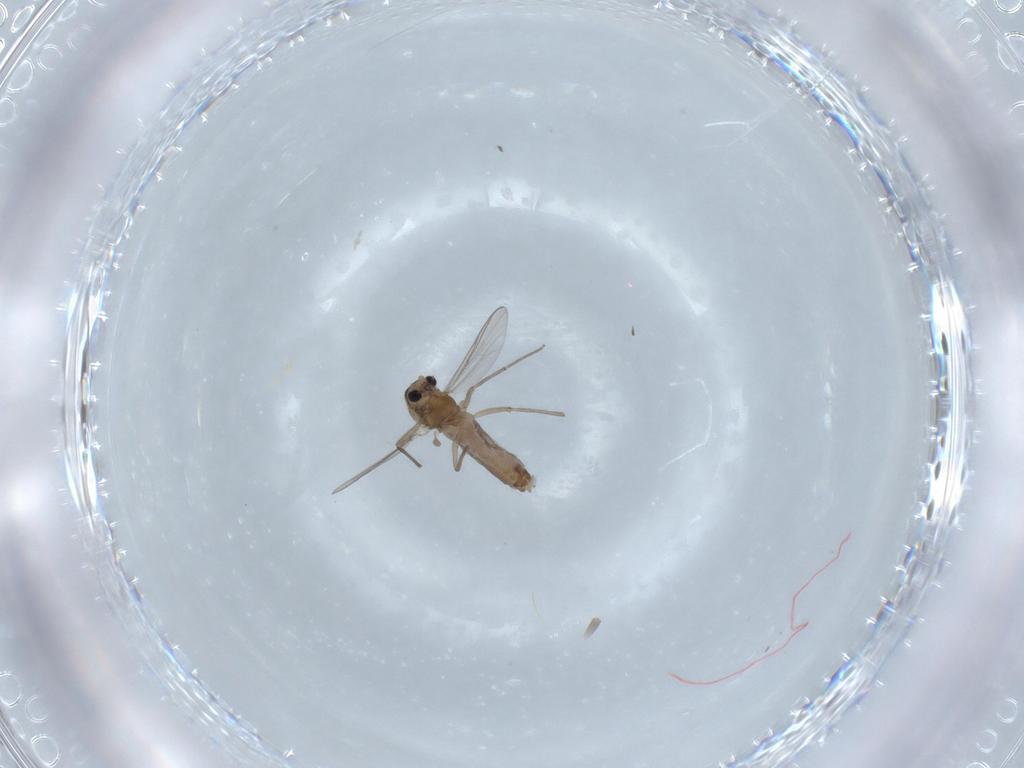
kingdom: Animalia
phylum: Arthropoda
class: Insecta
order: Diptera
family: Chironomidae
